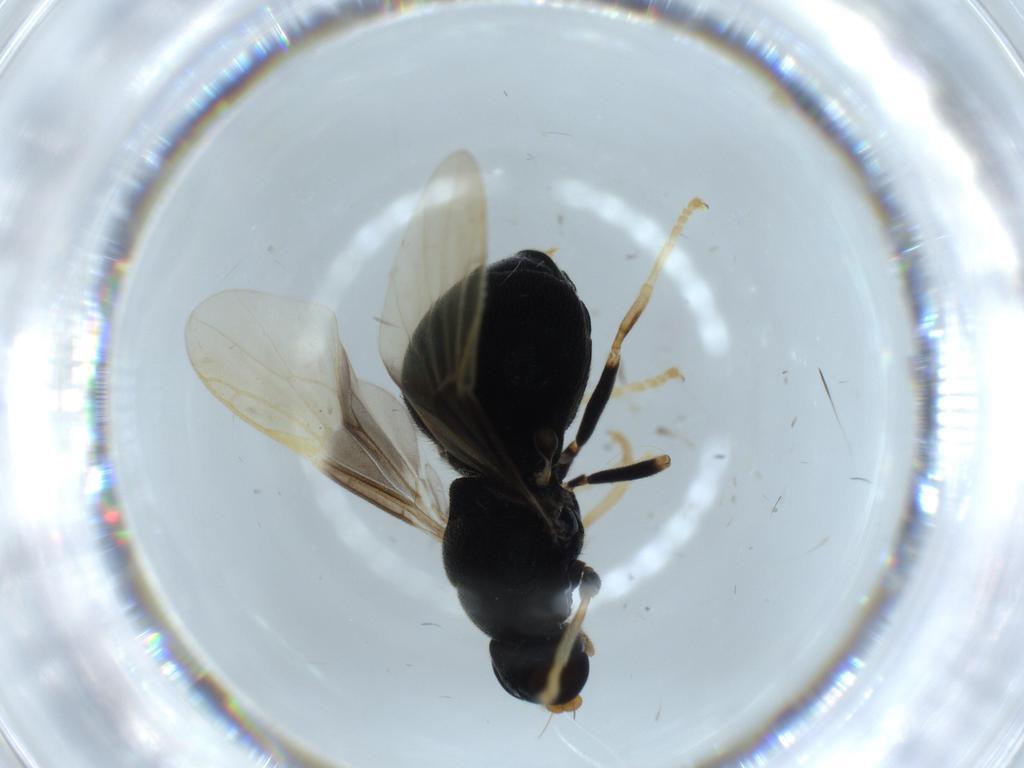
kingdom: Animalia
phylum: Arthropoda
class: Insecta
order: Diptera
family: Stratiomyidae
